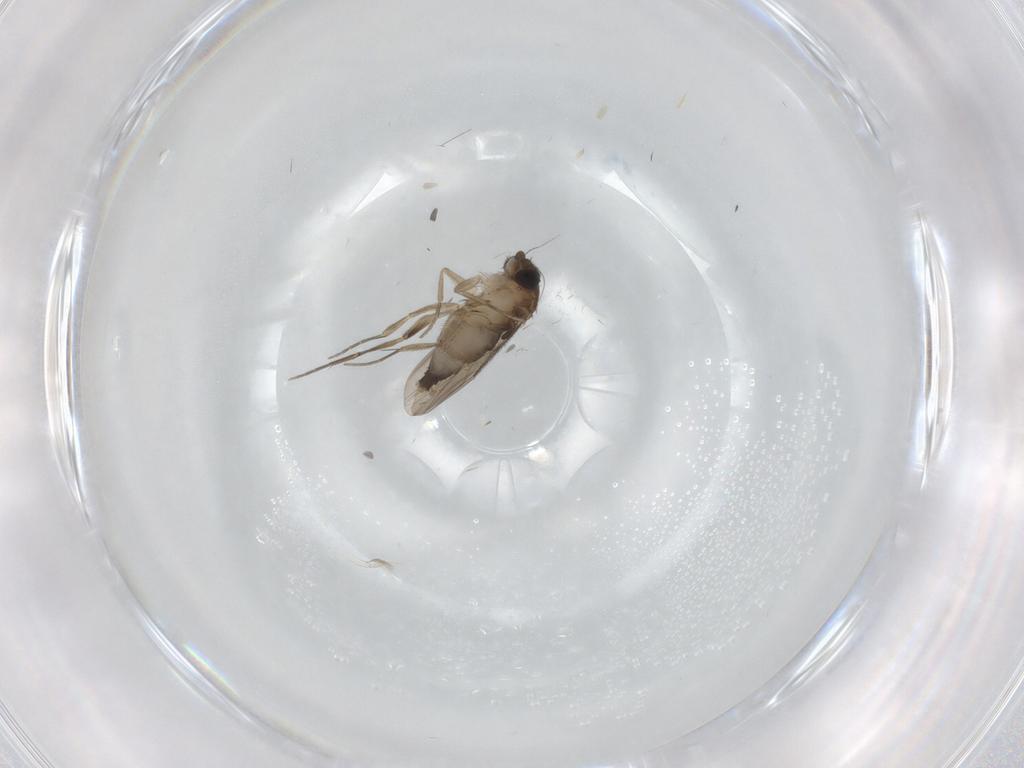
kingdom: Animalia
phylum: Arthropoda
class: Insecta
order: Diptera
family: Phoridae
